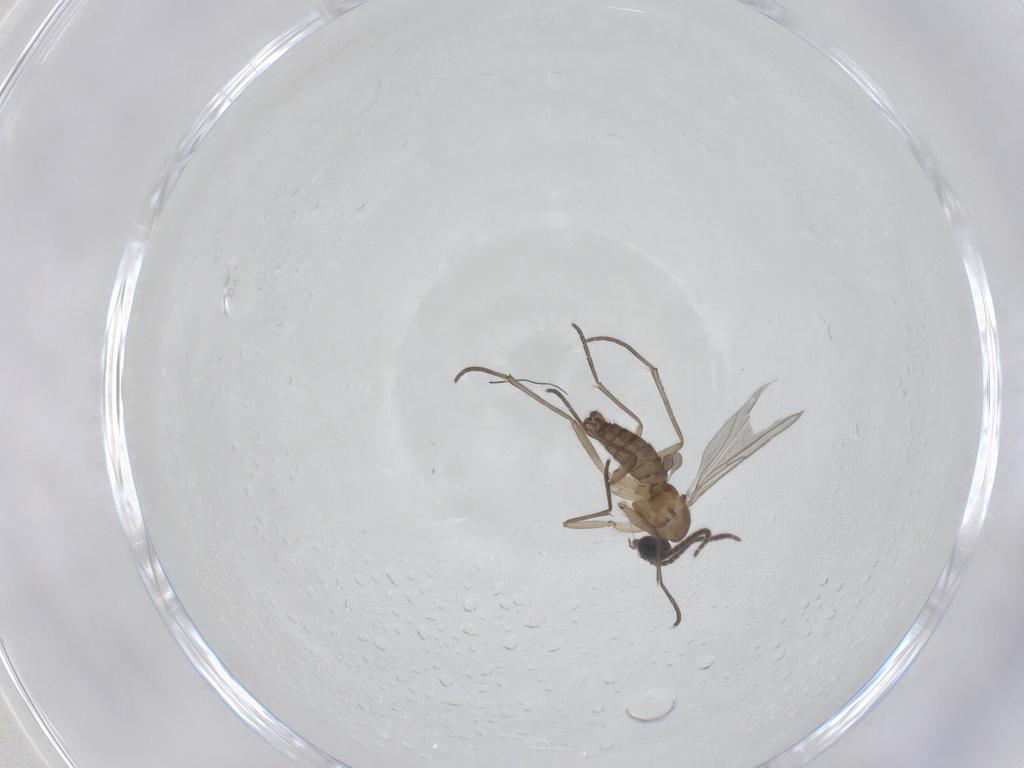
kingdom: Animalia
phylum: Arthropoda
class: Insecta
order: Diptera
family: Sciaridae
